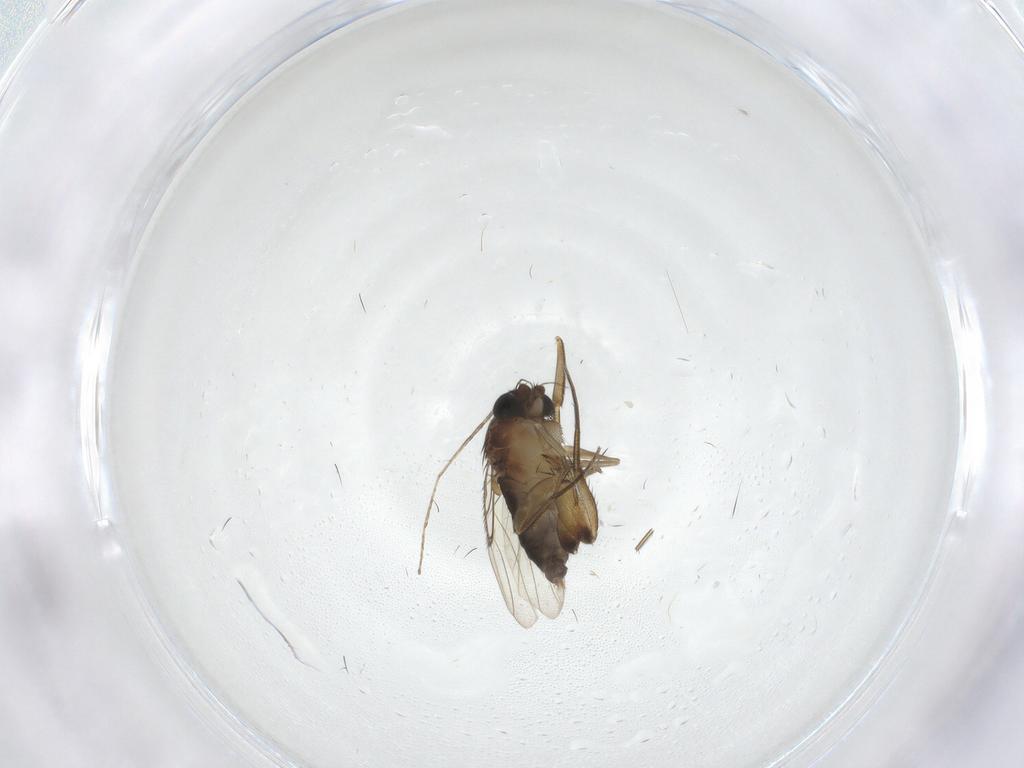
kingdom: Animalia
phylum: Arthropoda
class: Insecta
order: Diptera
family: Phoridae
